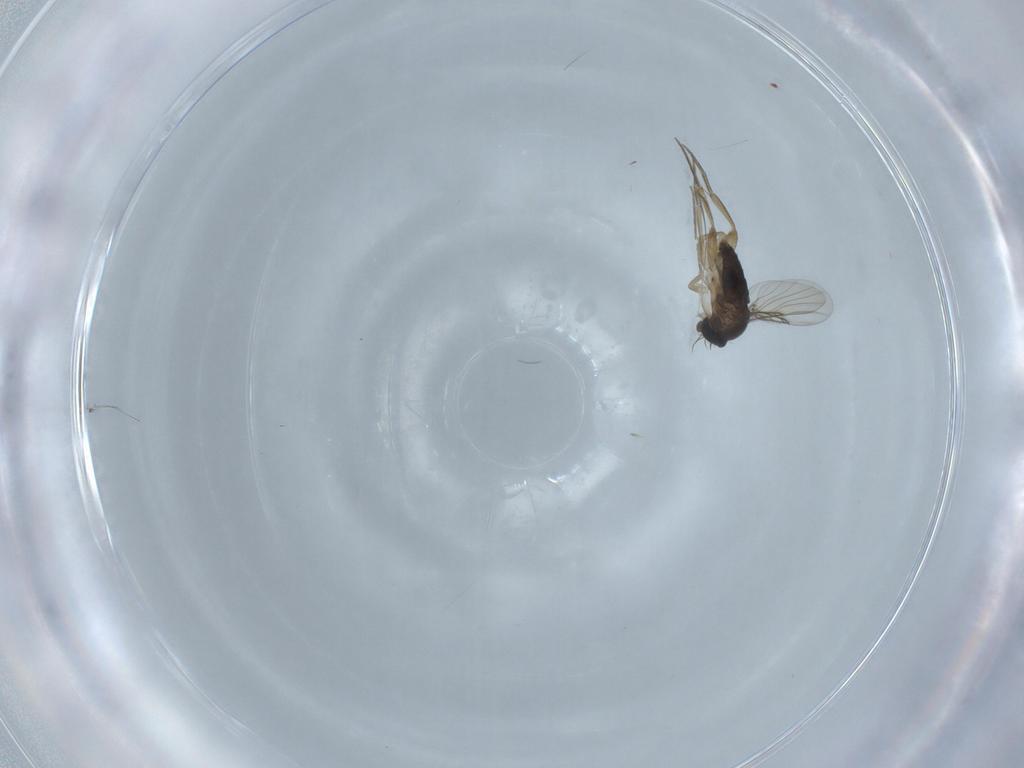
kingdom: Animalia
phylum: Arthropoda
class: Insecta
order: Diptera
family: Phoridae
